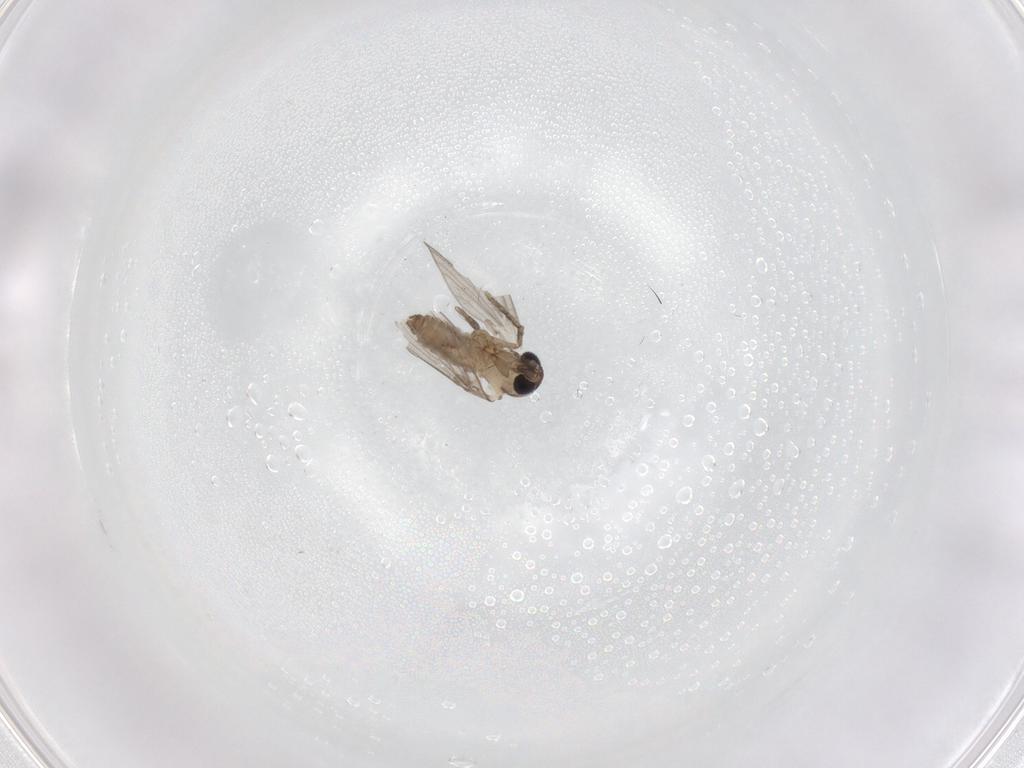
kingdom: Animalia
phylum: Arthropoda
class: Insecta
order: Diptera
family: Psychodidae
